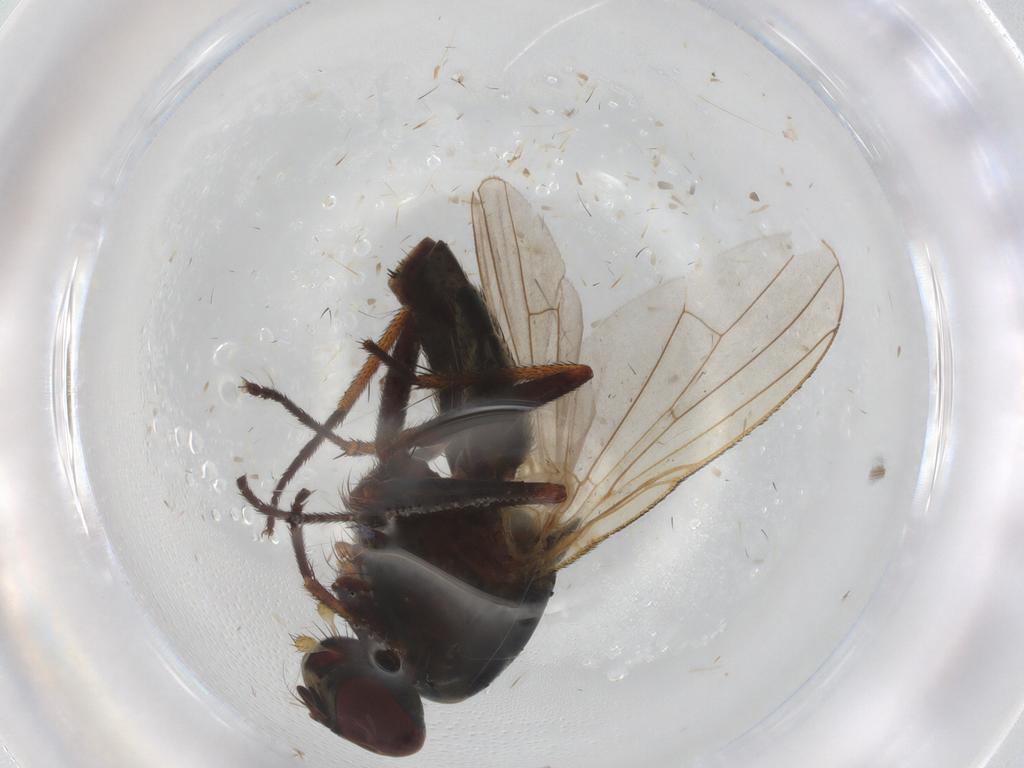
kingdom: Animalia
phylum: Arthropoda
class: Insecta
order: Diptera
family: Muscidae
